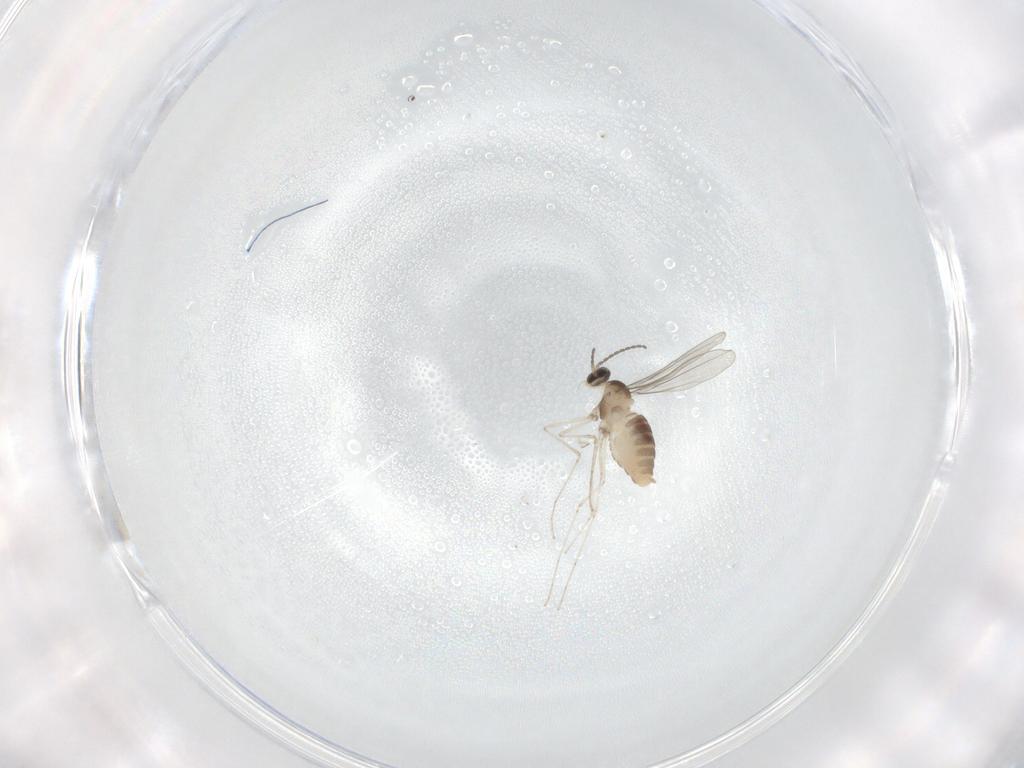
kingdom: Animalia
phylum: Arthropoda
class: Insecta
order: Diptera
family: Cecidomyiidae
